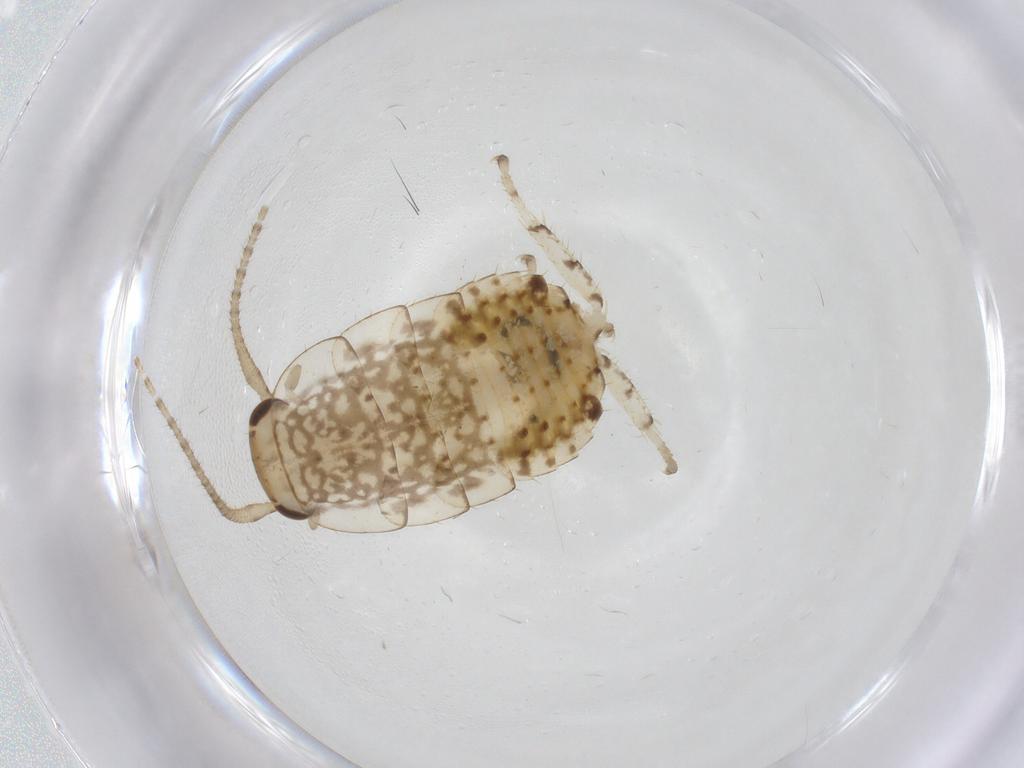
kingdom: Animalia
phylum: Arthropoda
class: Insecta
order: Blattodea
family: Ectobiidae
